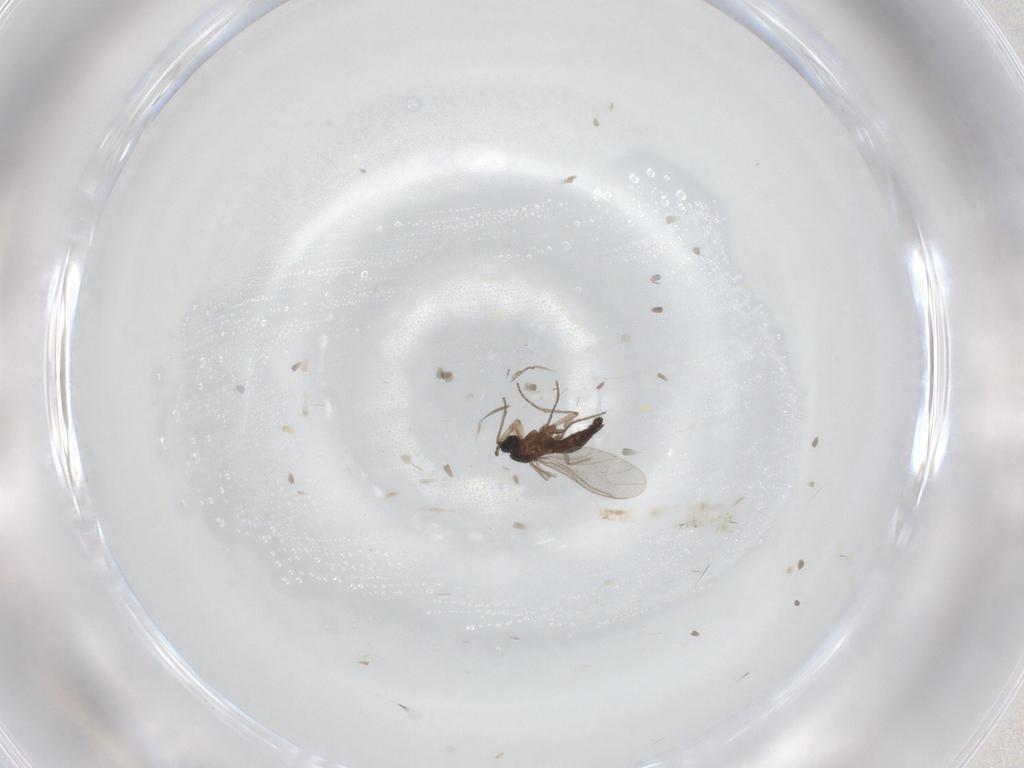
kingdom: Animalia
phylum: Arthropoda
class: Insecta
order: Diptera
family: Sciaridae
